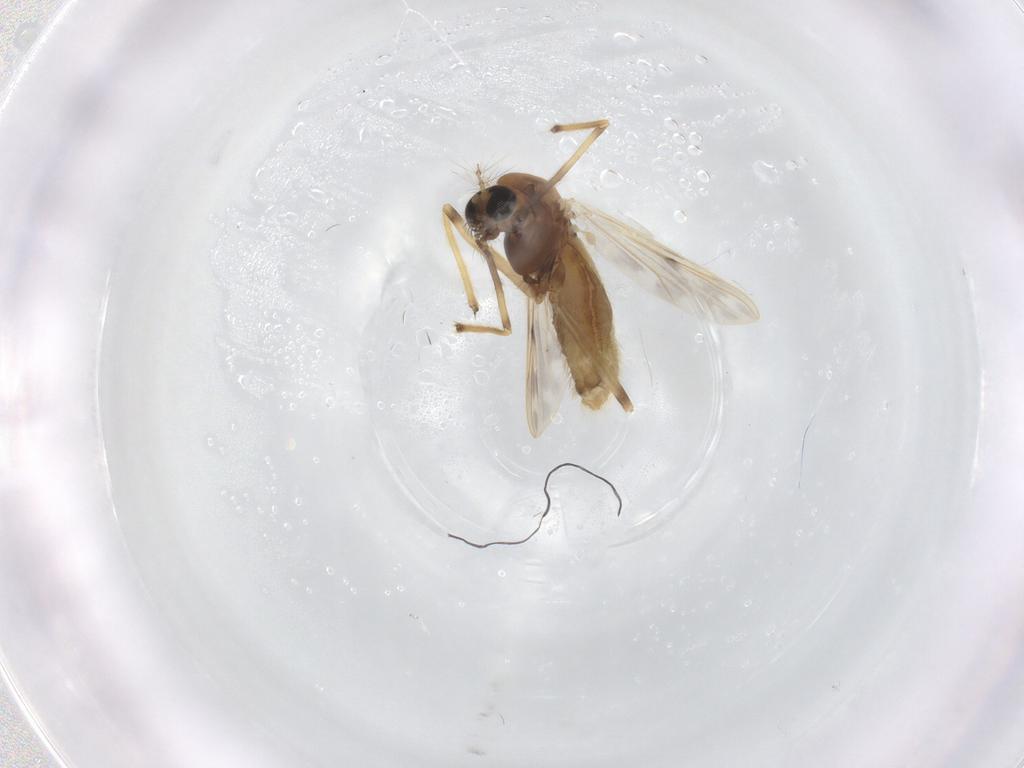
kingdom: Animalia
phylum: Arthropoda
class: Insecta
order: Diptera
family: Chironomidae
